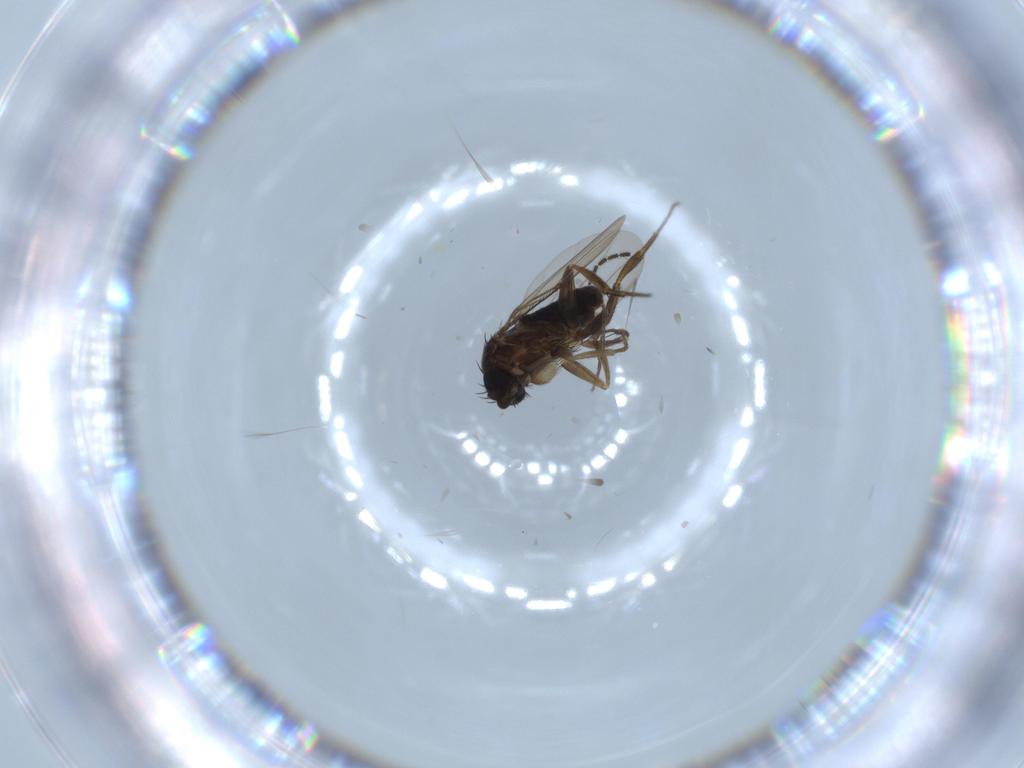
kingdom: Animalia
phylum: Arthropoda
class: Insecta
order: Diptera
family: Phoridae
